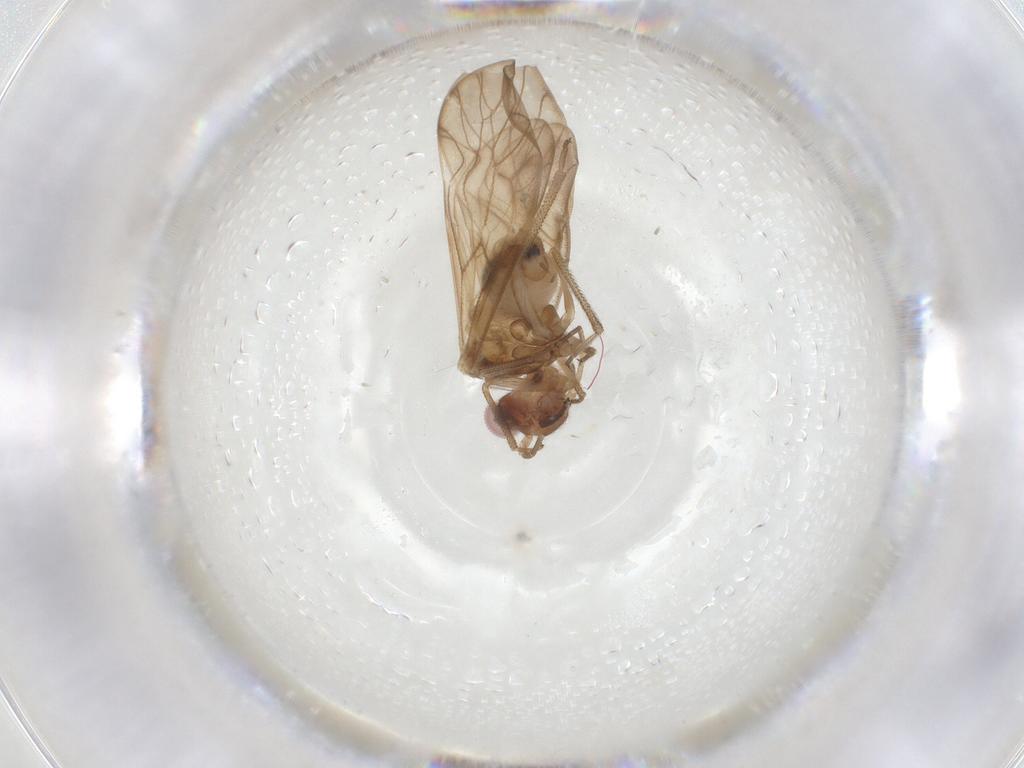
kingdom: Animalia
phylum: Arthropoda
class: Insecta
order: Psocodea
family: Amphipsocidae
